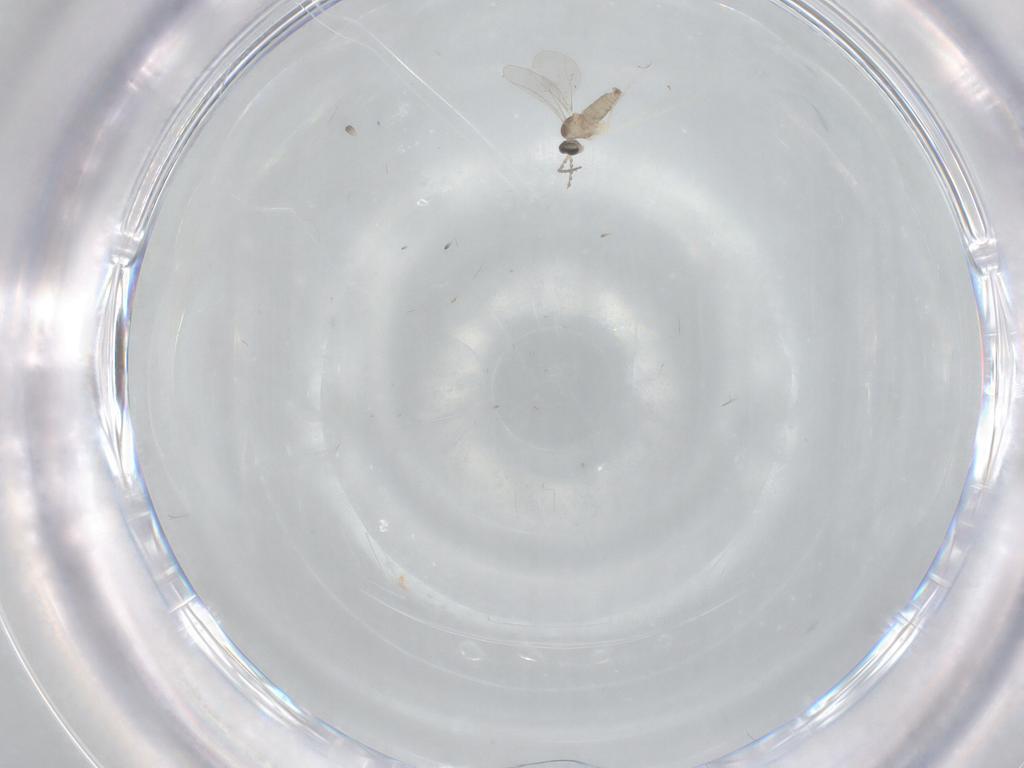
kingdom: Animalia
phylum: Arthropoda
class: Insecta
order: Diptera
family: Cecidomyiidae
